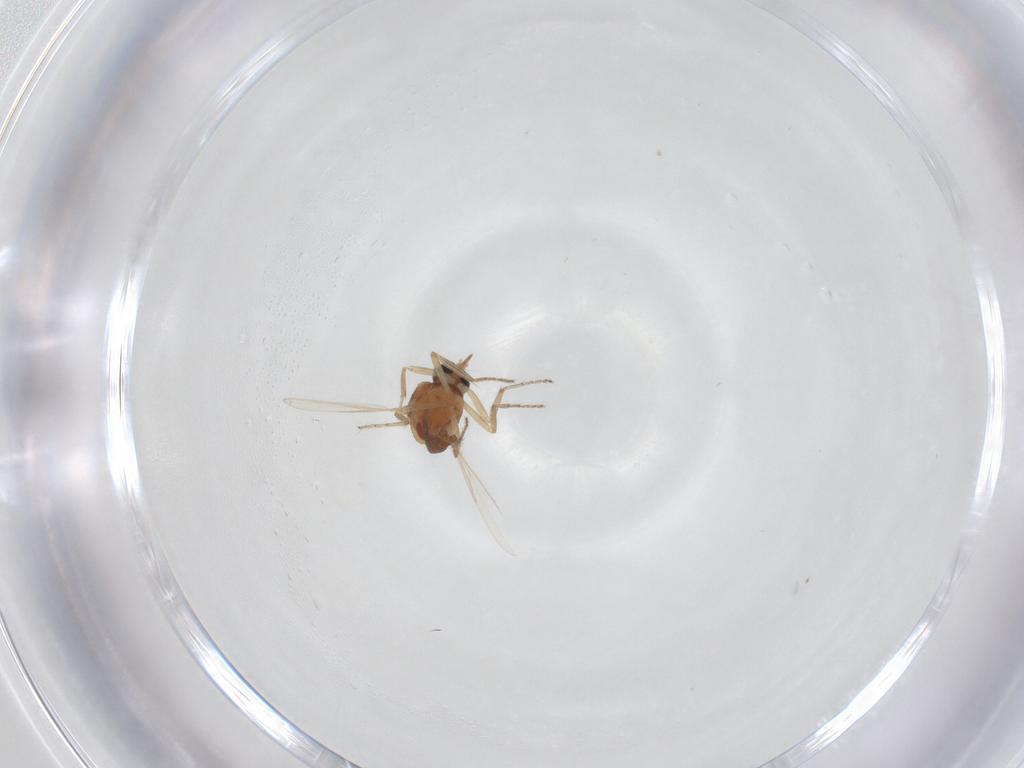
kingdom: Animalia
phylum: Arthropoda
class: Insecta
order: Diptera
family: Ceratopogonidae
